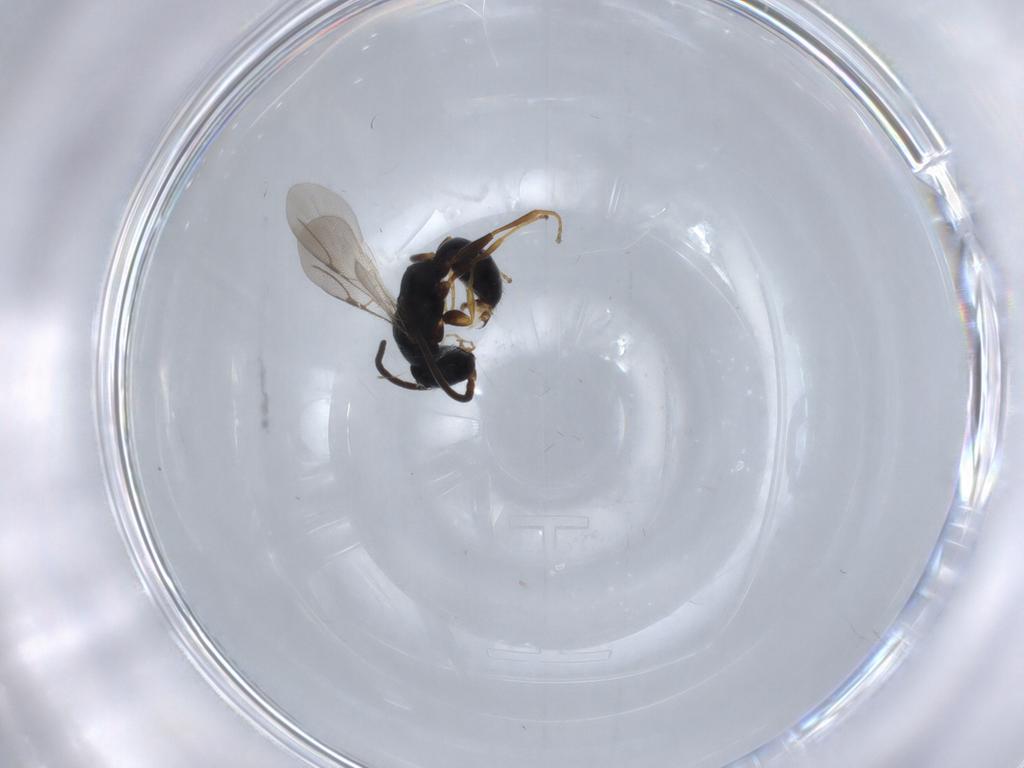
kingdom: Animalia
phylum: Arthropoda
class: Insecta
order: Hymenoptera
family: Bethylidae
